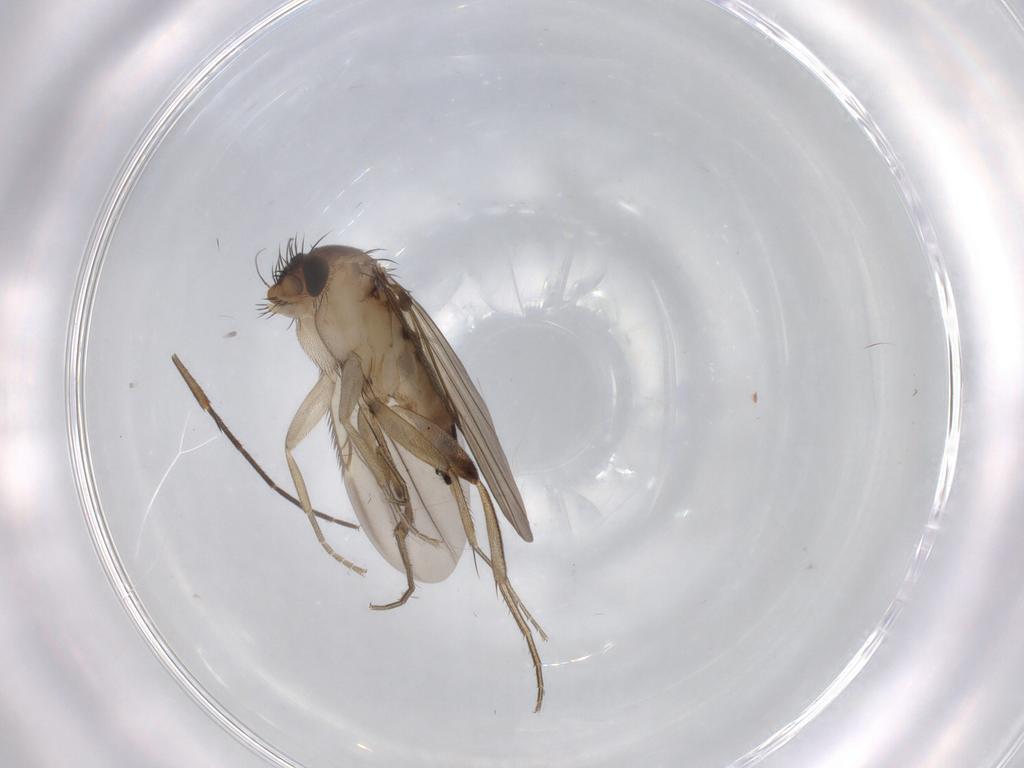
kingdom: Animalia
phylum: Arthropoda
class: Insecta
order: Diptera
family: Phoridae
